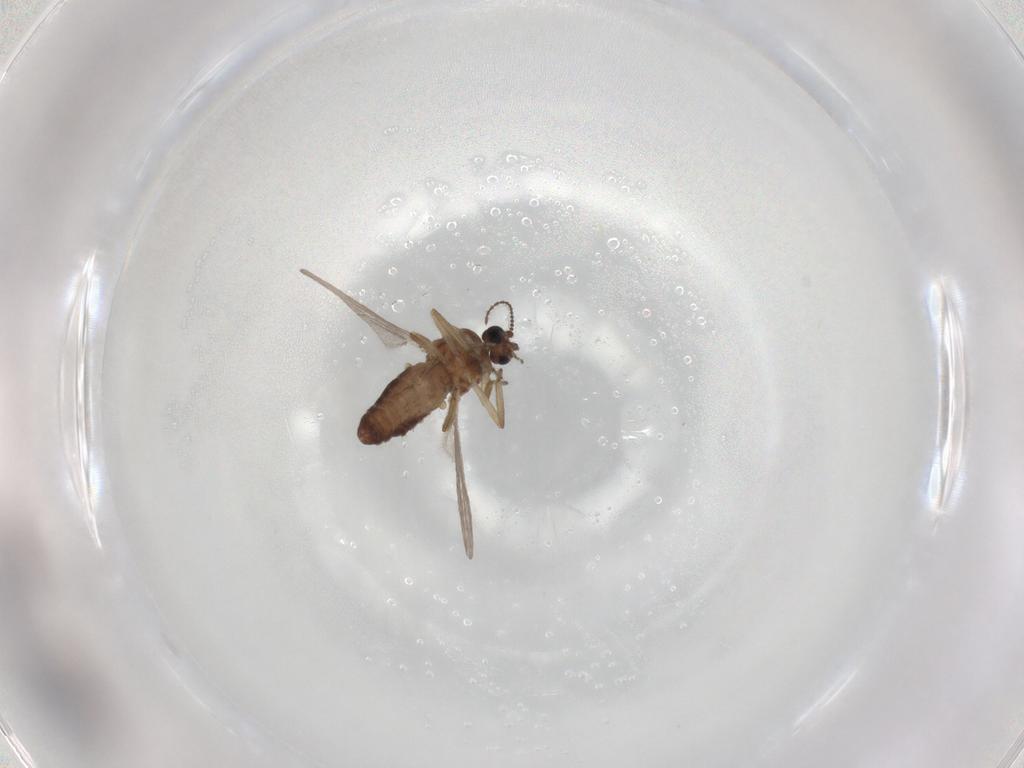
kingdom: Animalia
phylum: Arthropoda
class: Insecta
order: Diptera
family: Ceratopogonidae
